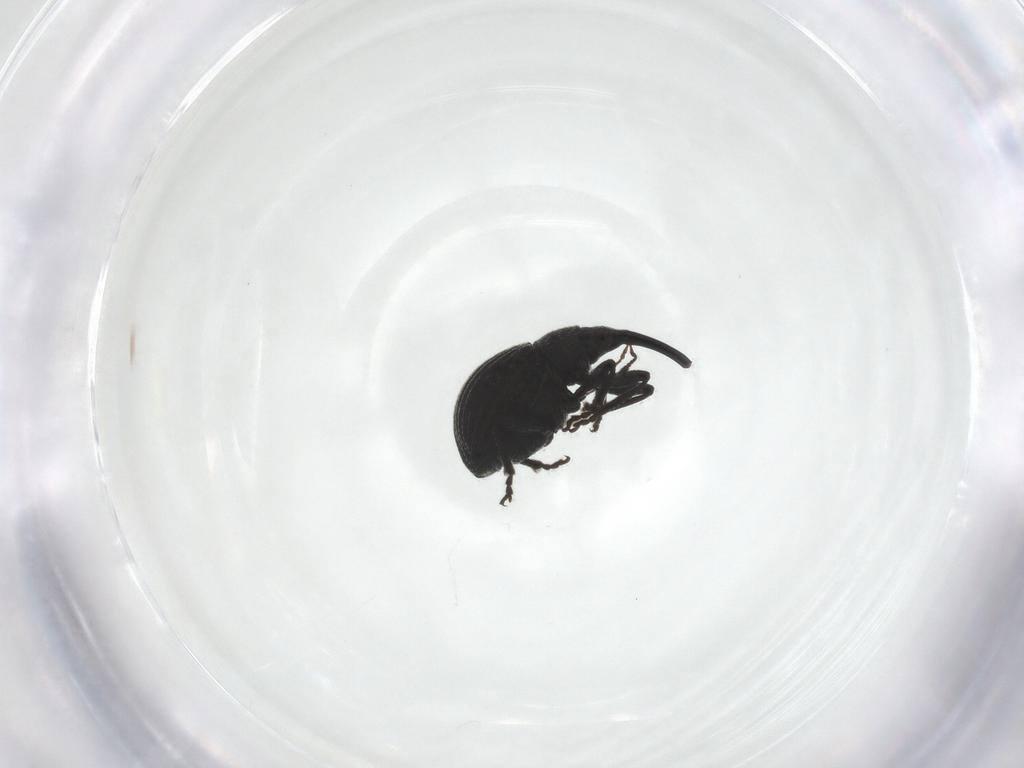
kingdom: Animalia
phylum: Arthropoda
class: Insecta
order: Coleoptera
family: Brentidae
